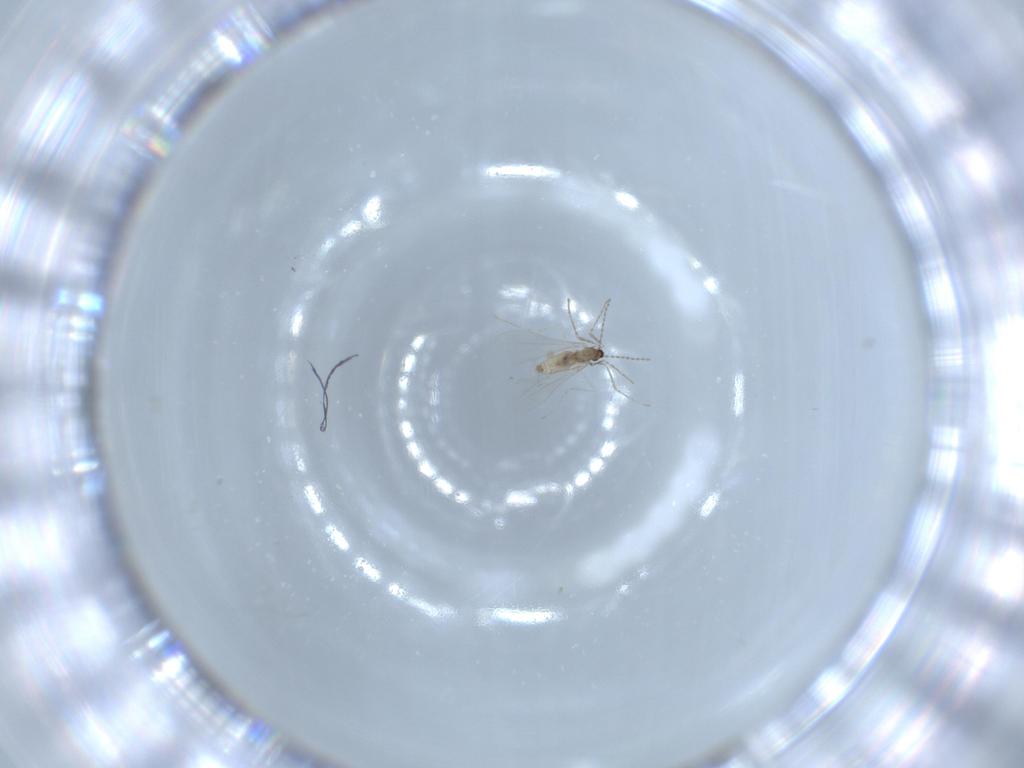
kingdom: Animalia
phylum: Arthropoda
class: Insecta
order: Diptera
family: Cecidomyiidae
